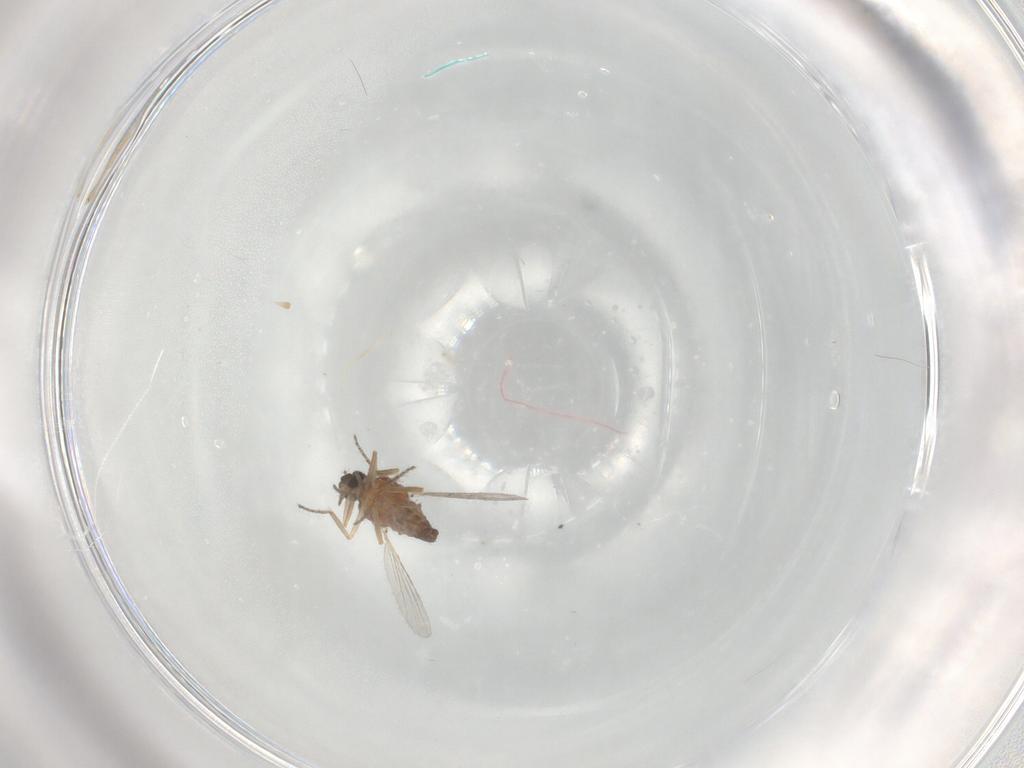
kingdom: Animalia
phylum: Arthropoda
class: Insecta
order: Diptera
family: Ceratopogonidae
